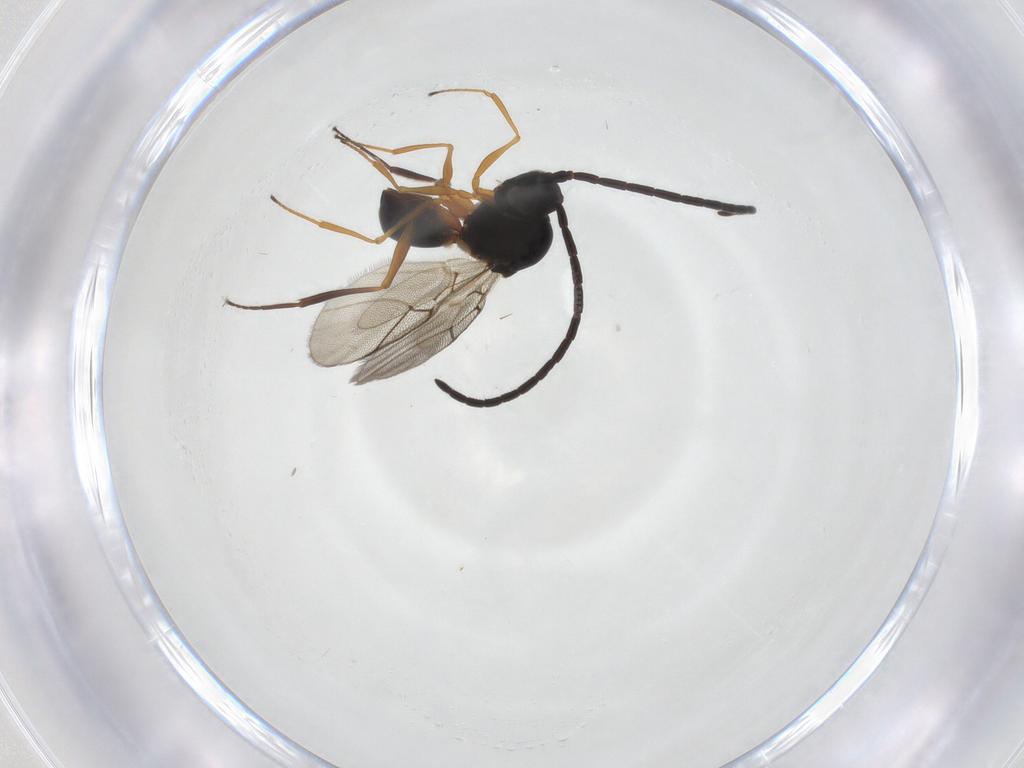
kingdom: Animalia
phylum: Arthropoda
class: Insecta
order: Hymenoptera
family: Figitidae
